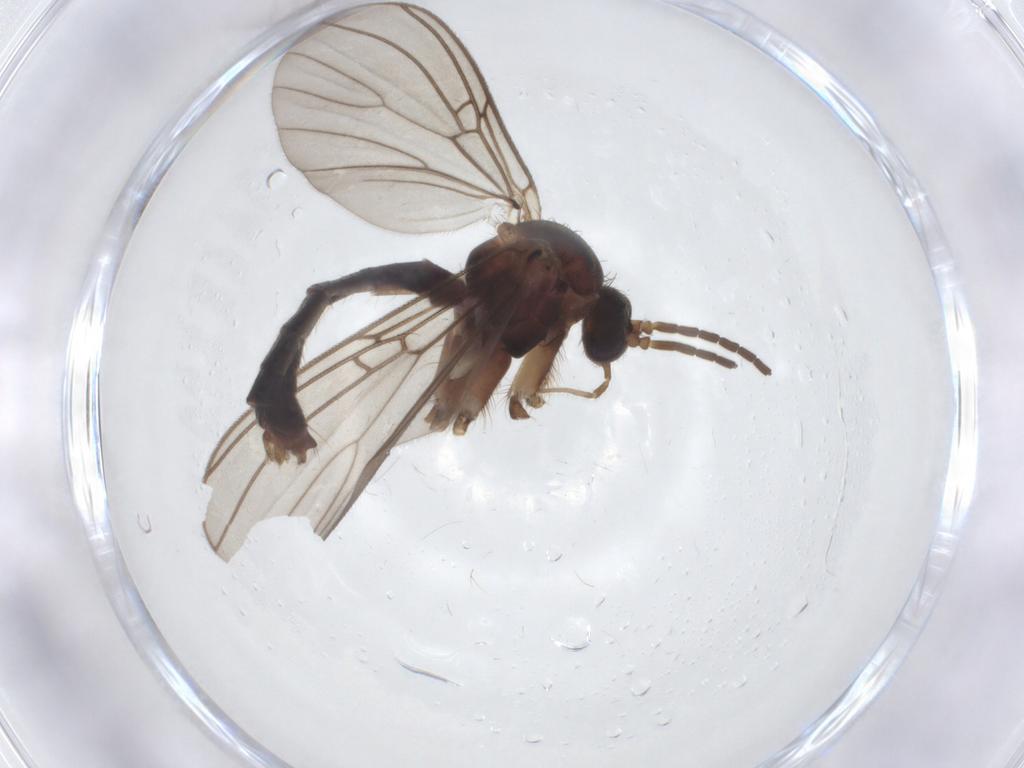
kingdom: Animalia
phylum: Arthropoda
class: Insecta
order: Diptera
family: Mycetophilidae
